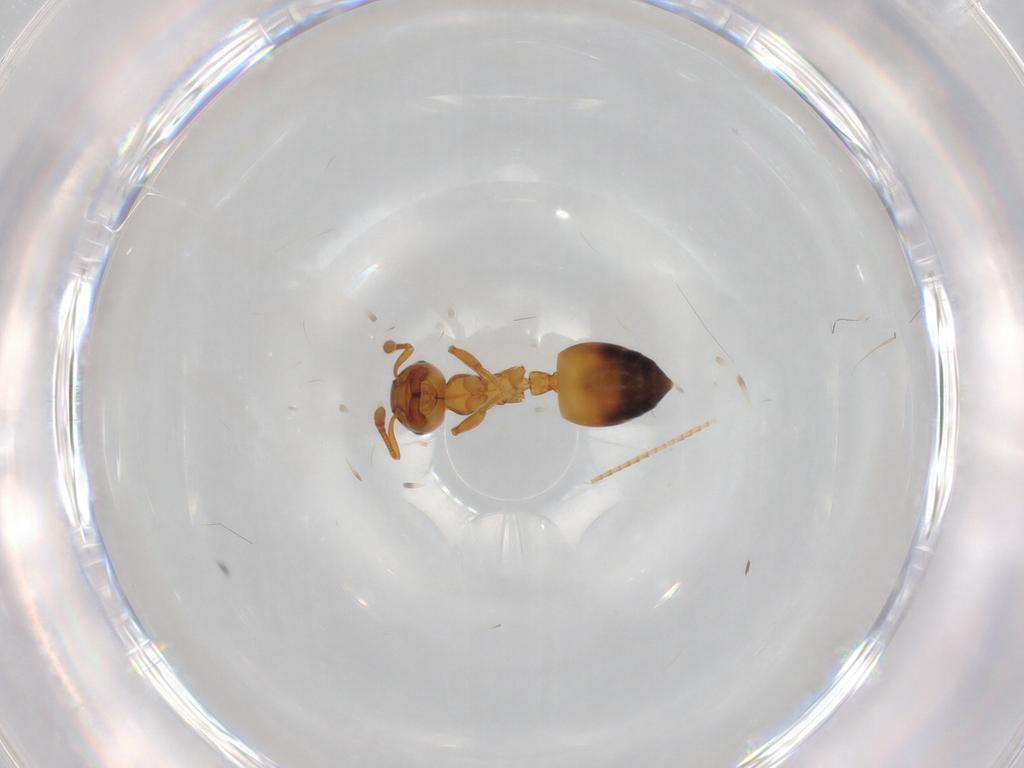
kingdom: Animalia
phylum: Arthropoda
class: Insecta
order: Hymenoptera
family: Formicidae
